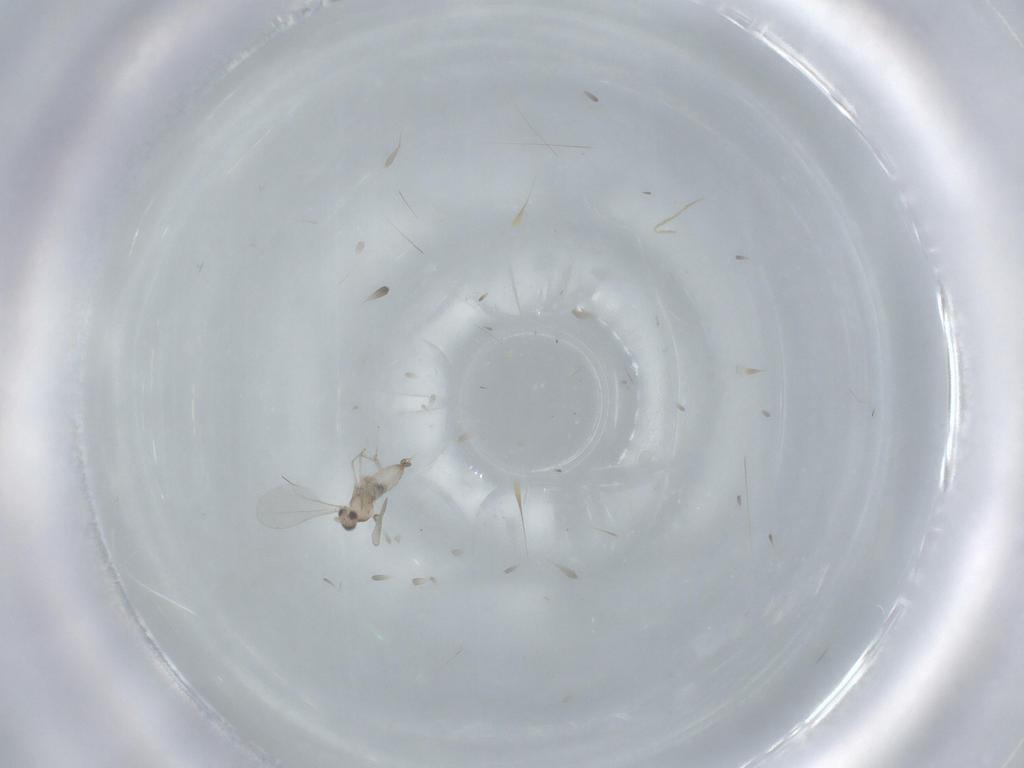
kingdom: Animalia
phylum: Arthropoda
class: Insecta
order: Diptera
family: Cecidomyiidae
